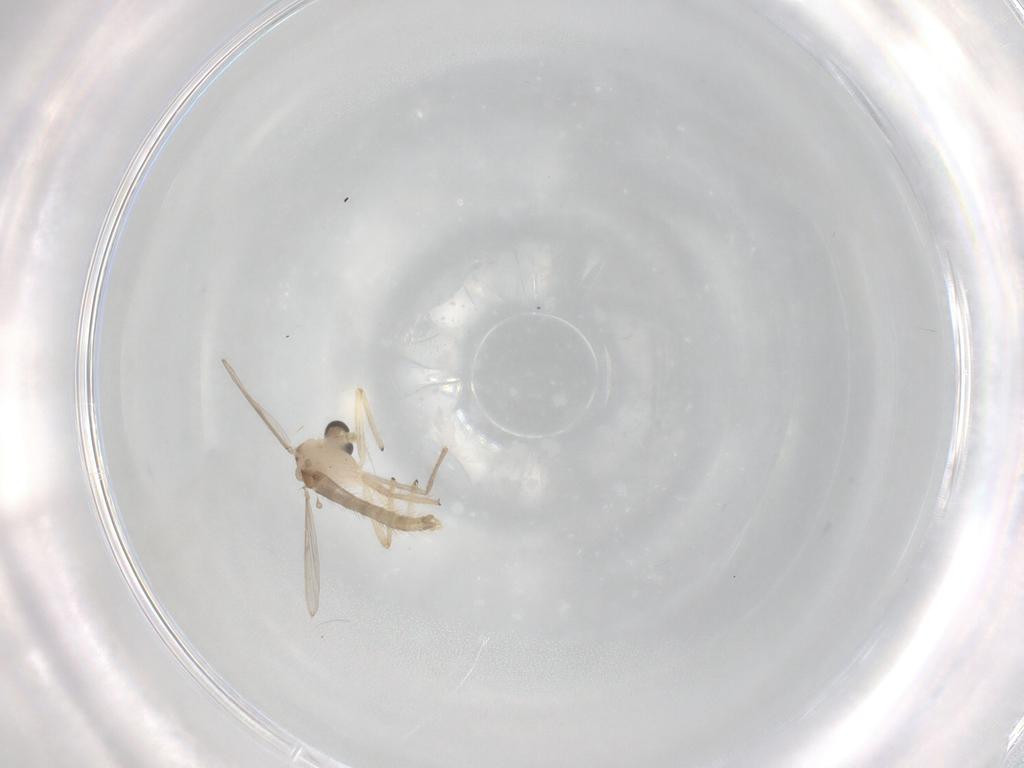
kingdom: Animalia
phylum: Arthropoda
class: Insecta
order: Diptera
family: Chironomidae
